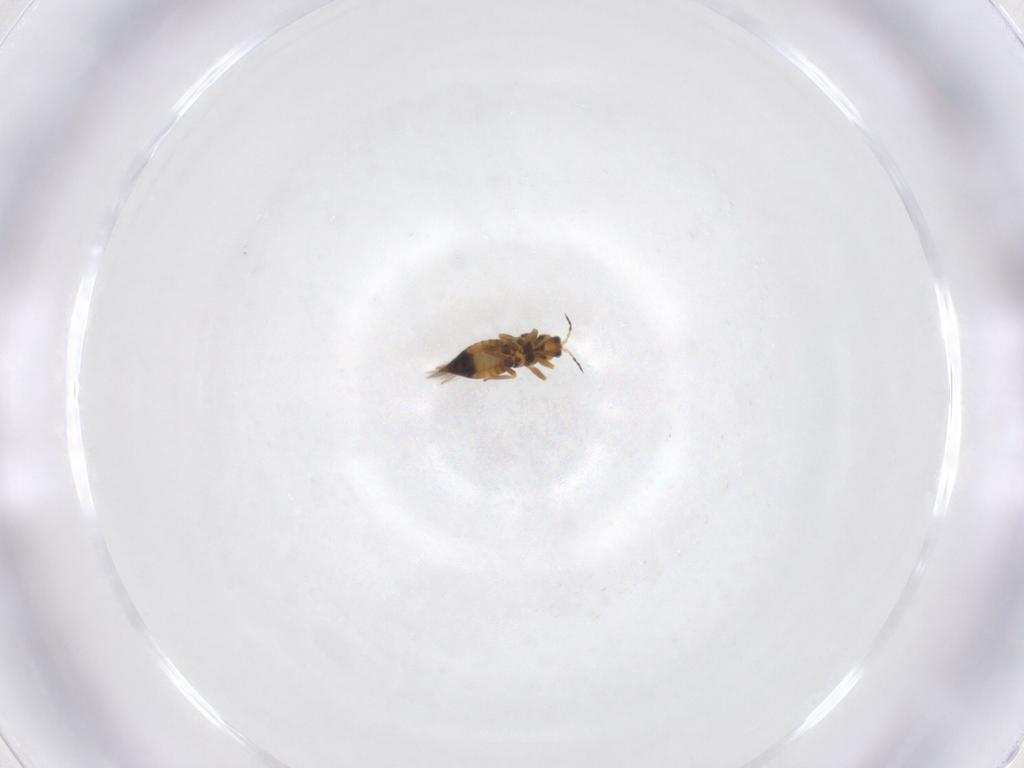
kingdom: Animalia
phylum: Arthropoda
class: Insecta
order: Thysanoptera
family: Thripidae
